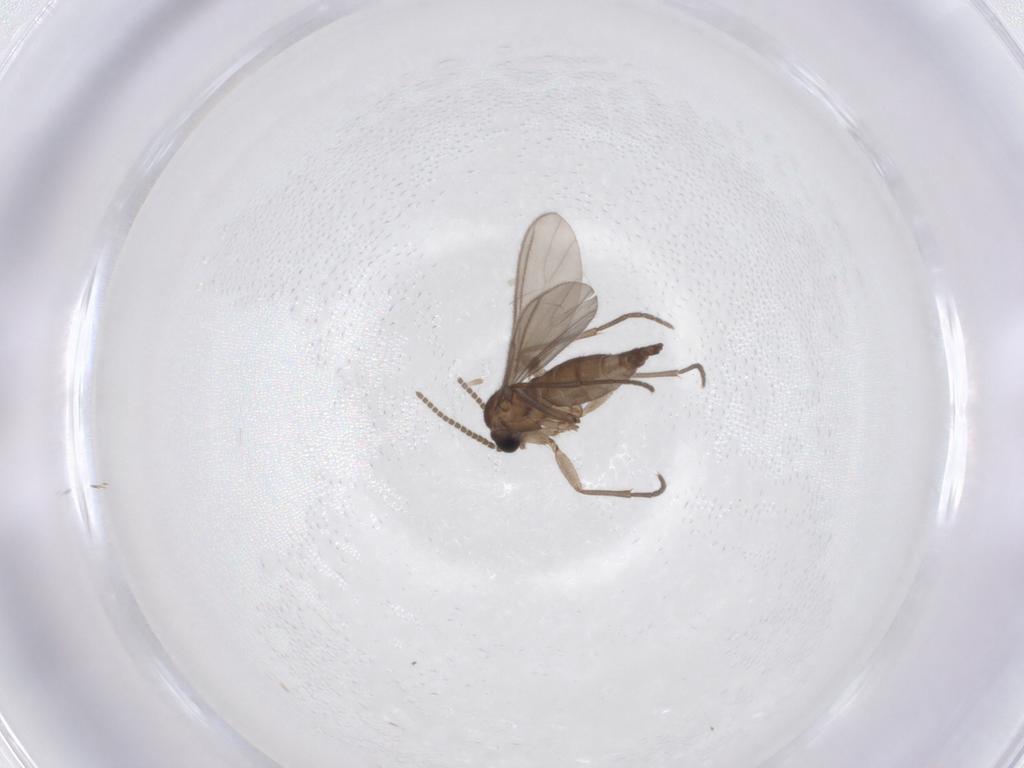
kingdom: Animalia
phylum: Arthropoda
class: Insecta
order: Diptera
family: Sciaridae
